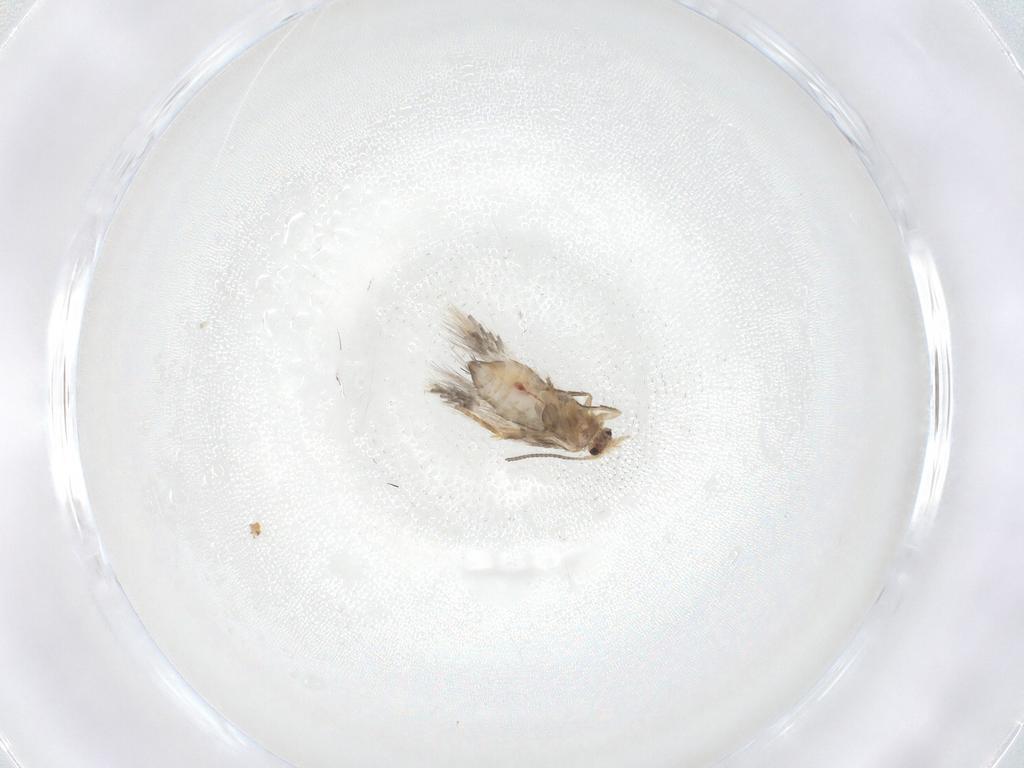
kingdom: Animalia
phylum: Arthropoda
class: Insecta
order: Lepidoptera
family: Nepticulidae
